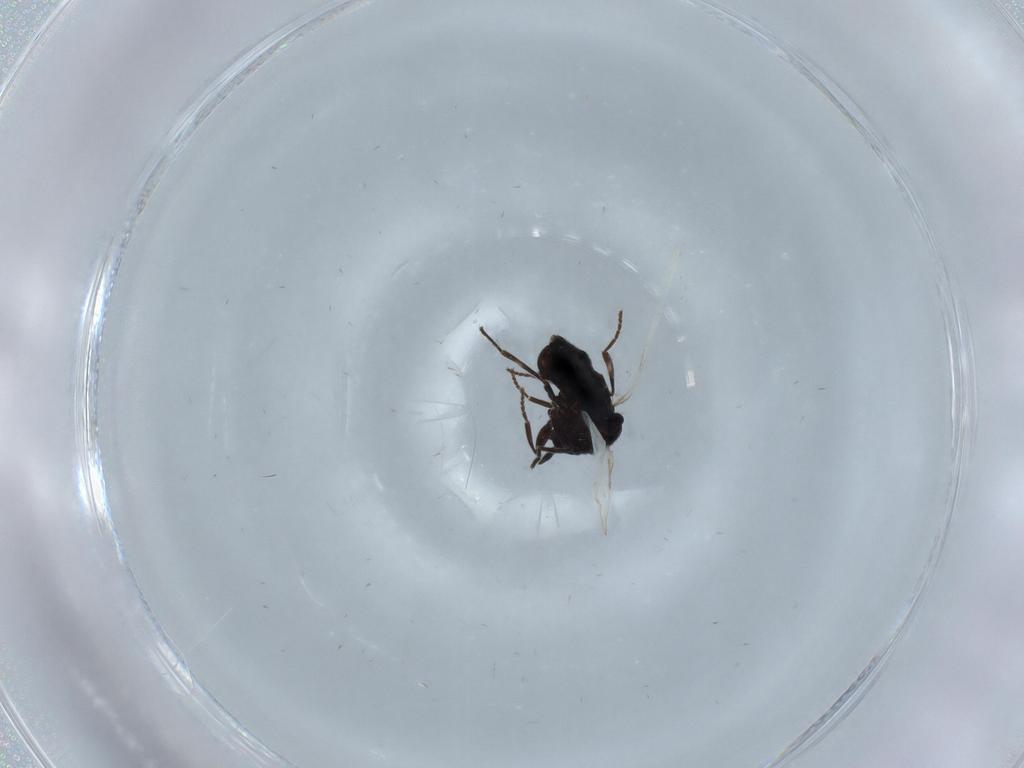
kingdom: Animalia
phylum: Arthropoda
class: Insecta
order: Diptera
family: Scatopsidae
